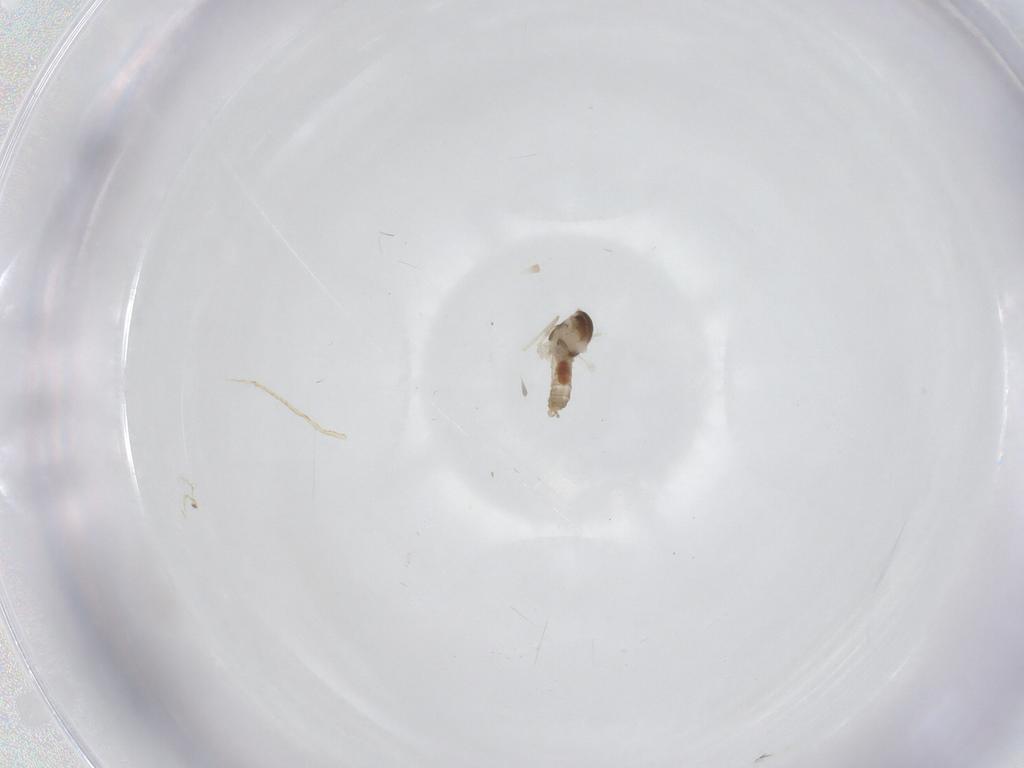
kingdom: Animalia
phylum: Arthropoda
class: Insecta
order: Diptera
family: Cecidomyiidae
